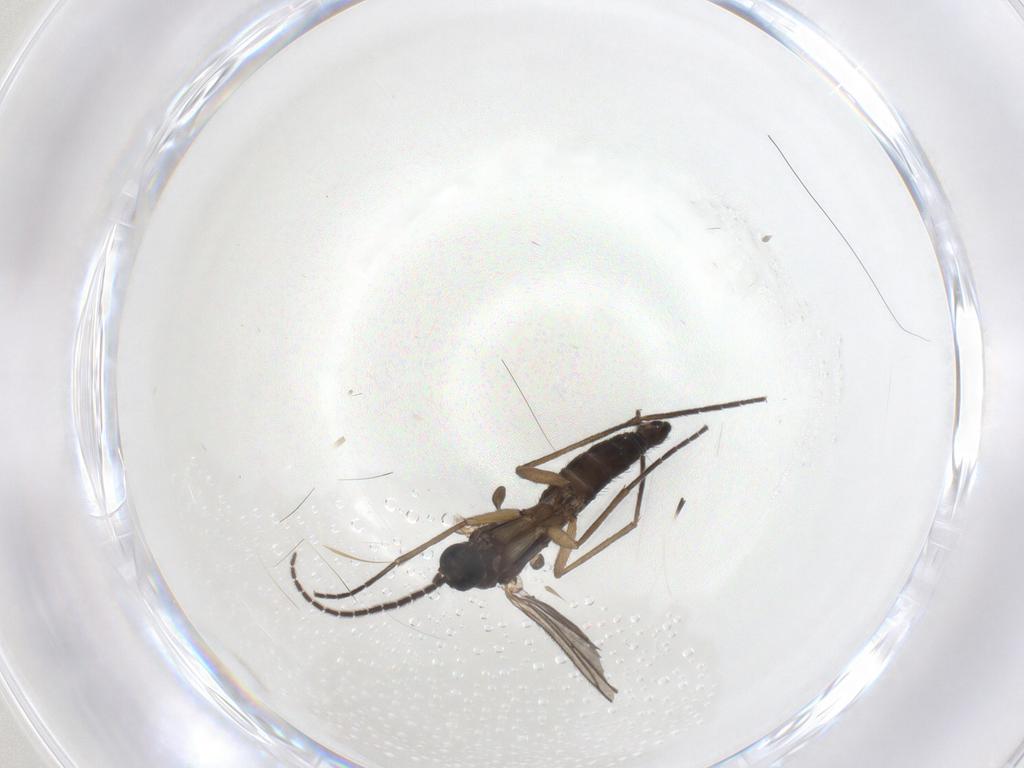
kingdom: Animalia
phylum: Arthropoda
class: Insecta
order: Diptera
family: Sciaridae
